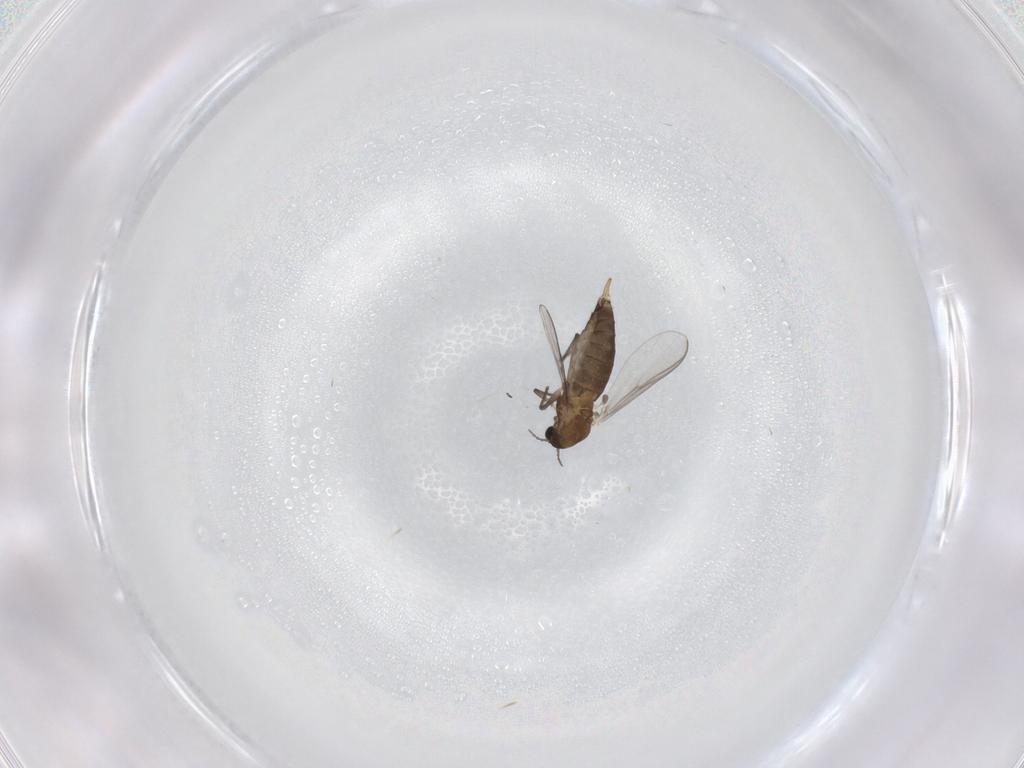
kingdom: Animalia
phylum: Arthropoda
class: Insecta
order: Diptera
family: Chironomidae
